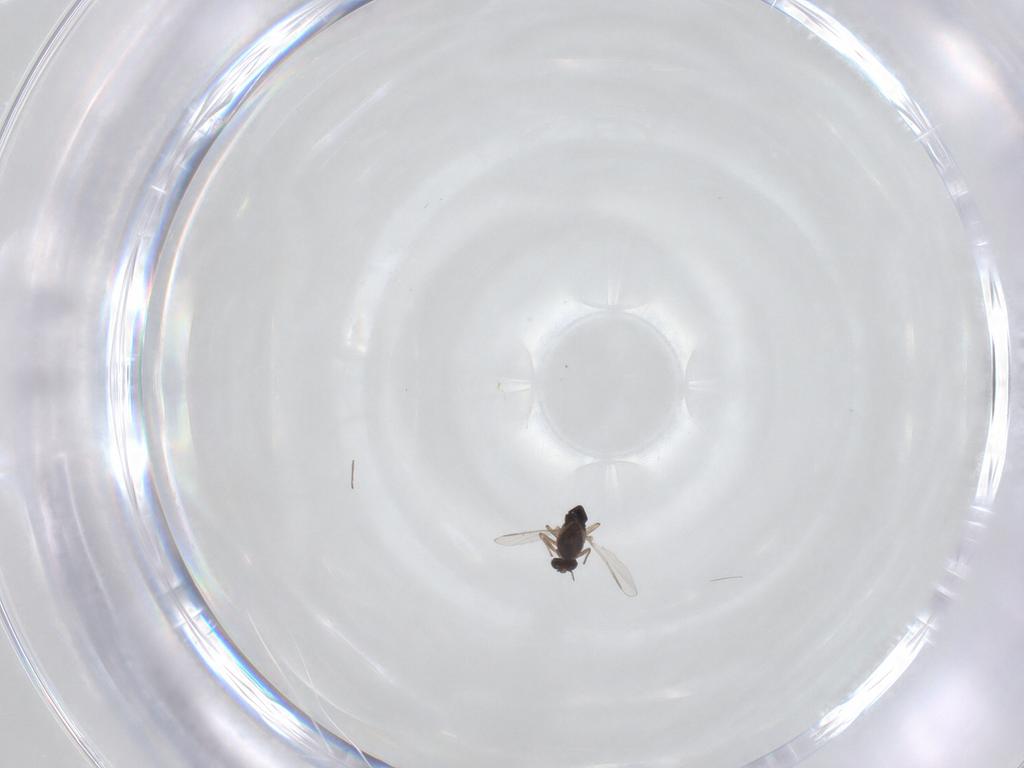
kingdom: Animalia
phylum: Arthropoda
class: Insecta
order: Diptera
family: Chironomidae
